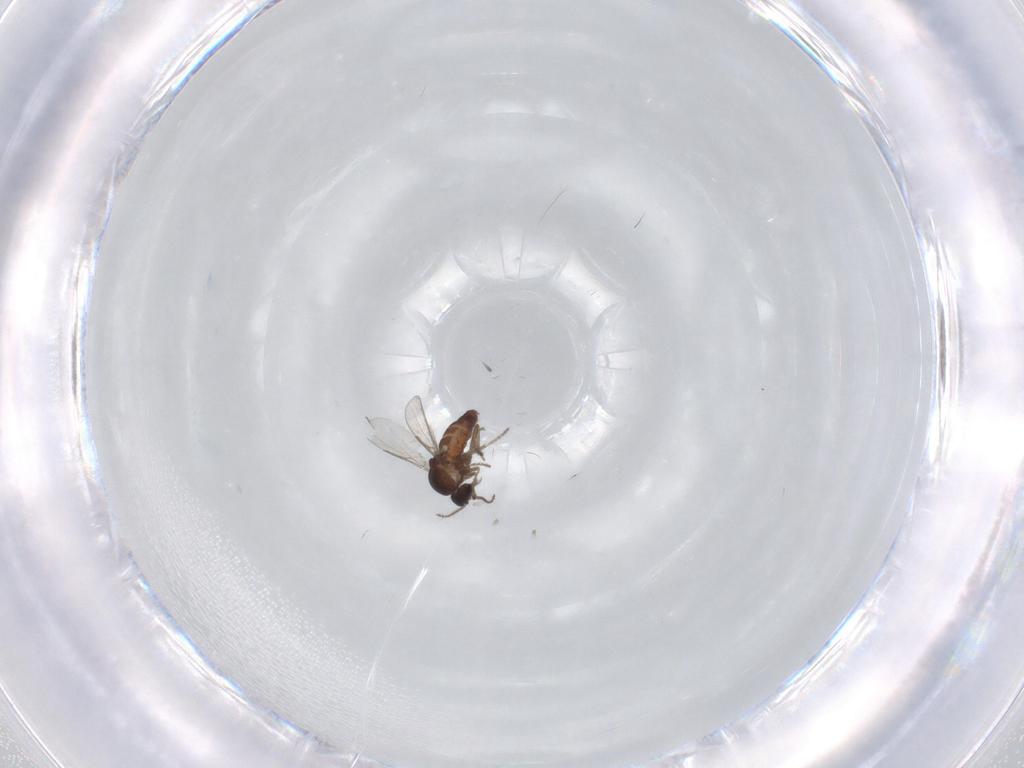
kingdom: Animalia
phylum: Arthropoda
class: Insecta
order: Diptera
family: Ceratopogonidae
